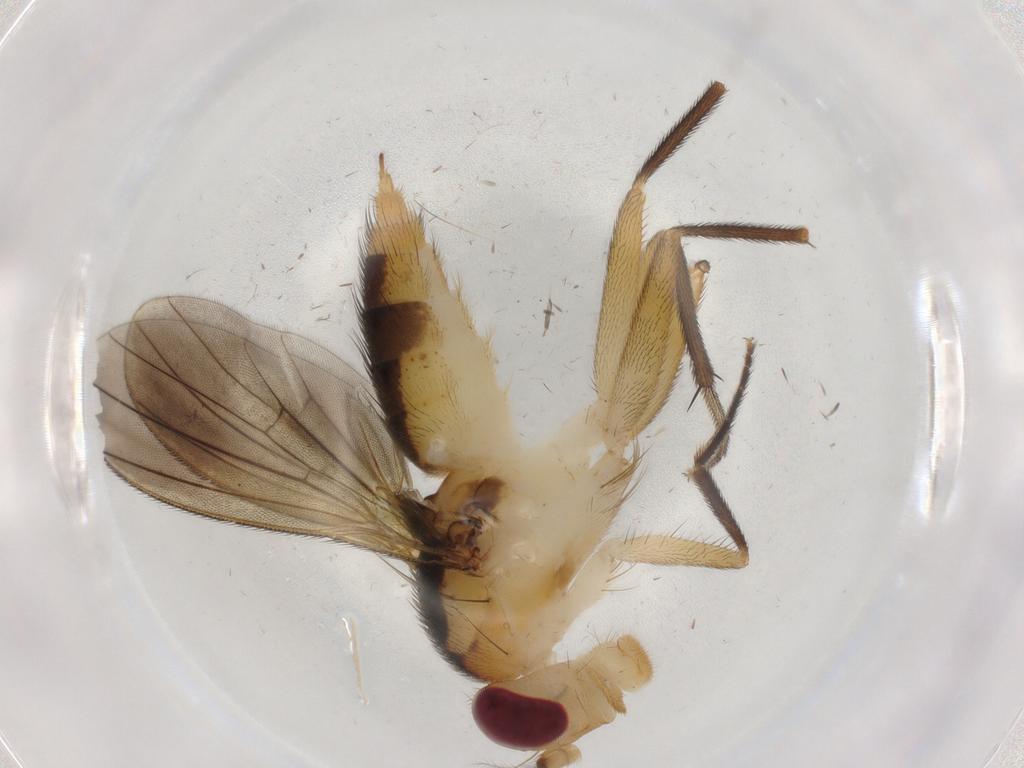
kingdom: Animalia
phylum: Arthropoda
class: Insecta
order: Diptera
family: Clusiidae
